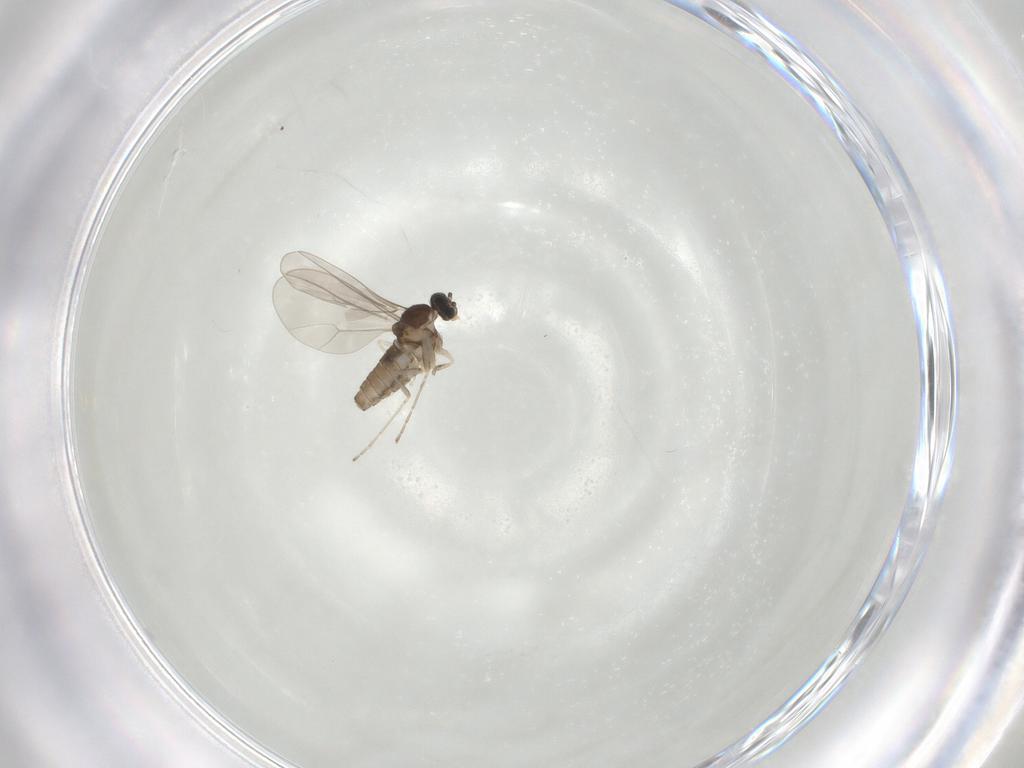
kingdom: Animalia
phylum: Arthropoda
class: Insecta
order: Diptera
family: Cecidomyiidae
